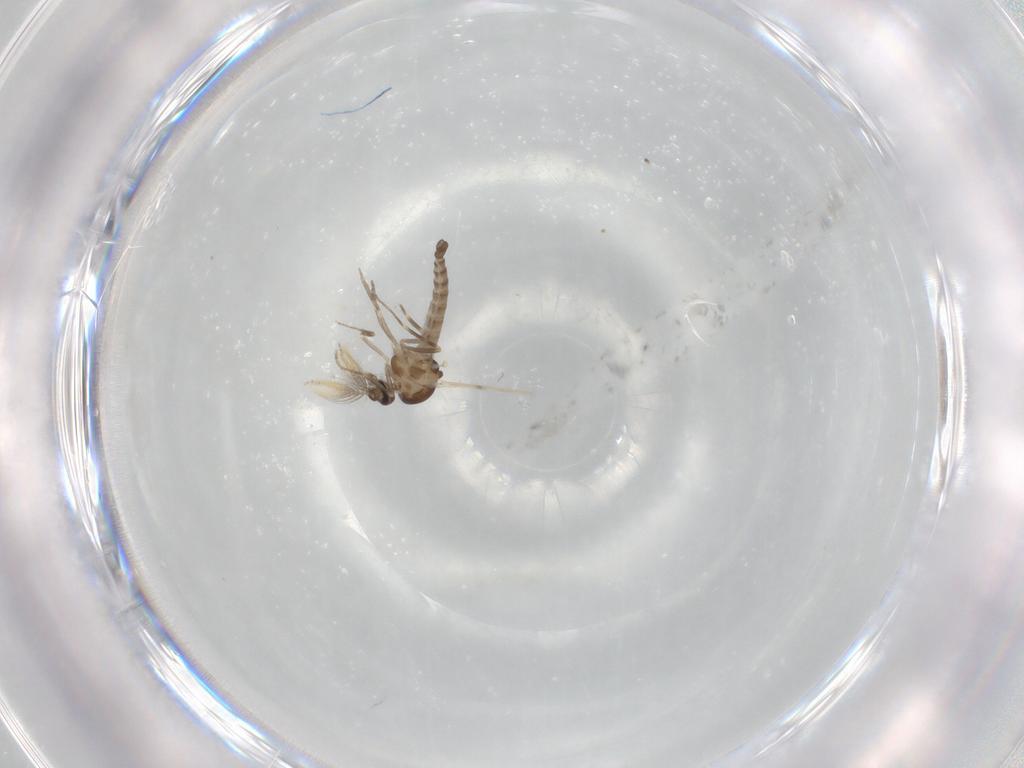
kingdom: Animalia
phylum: Arthropoda
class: Insecta
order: Diptera
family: Ceratopogonidae
